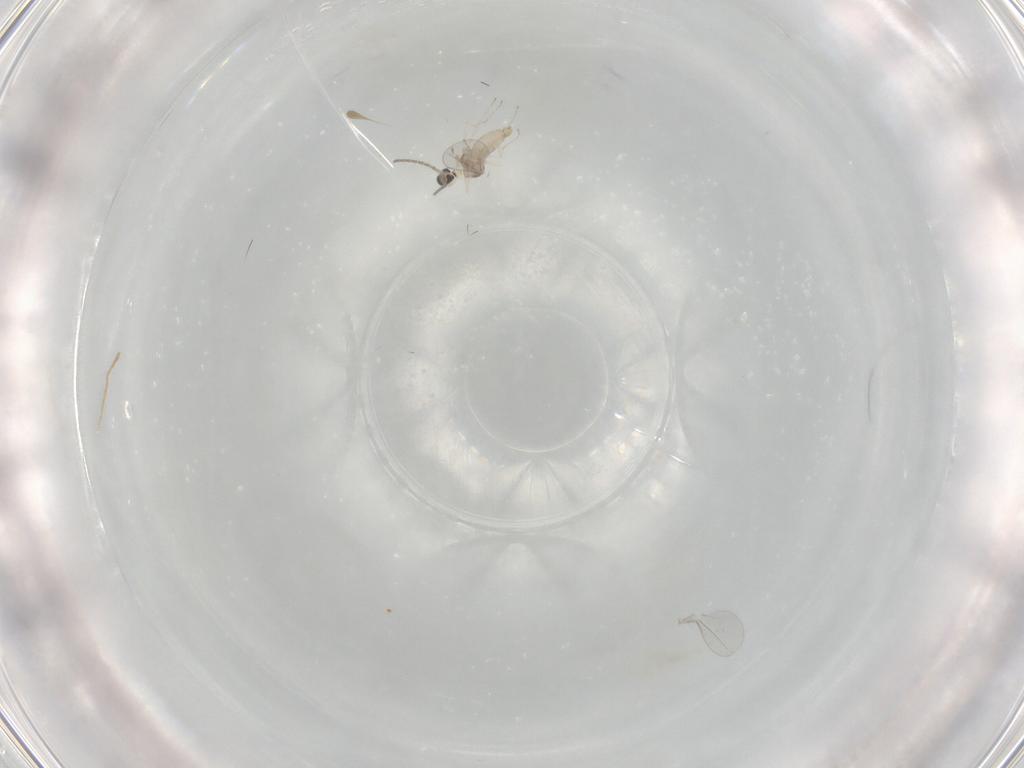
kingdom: Animalia
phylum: Arthropoda
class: Insecta
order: Diptera
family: Cecidomyiidae
